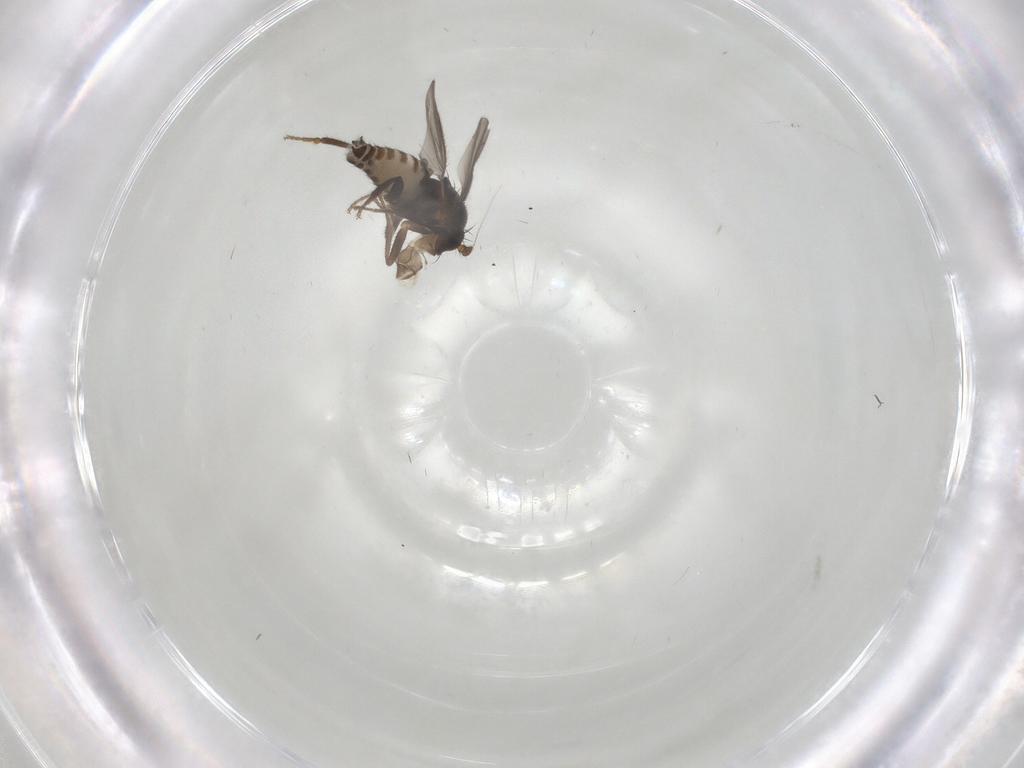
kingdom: Animalia
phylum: Arthropoda
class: Insecta
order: Diptera
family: Sphaeroceridae
